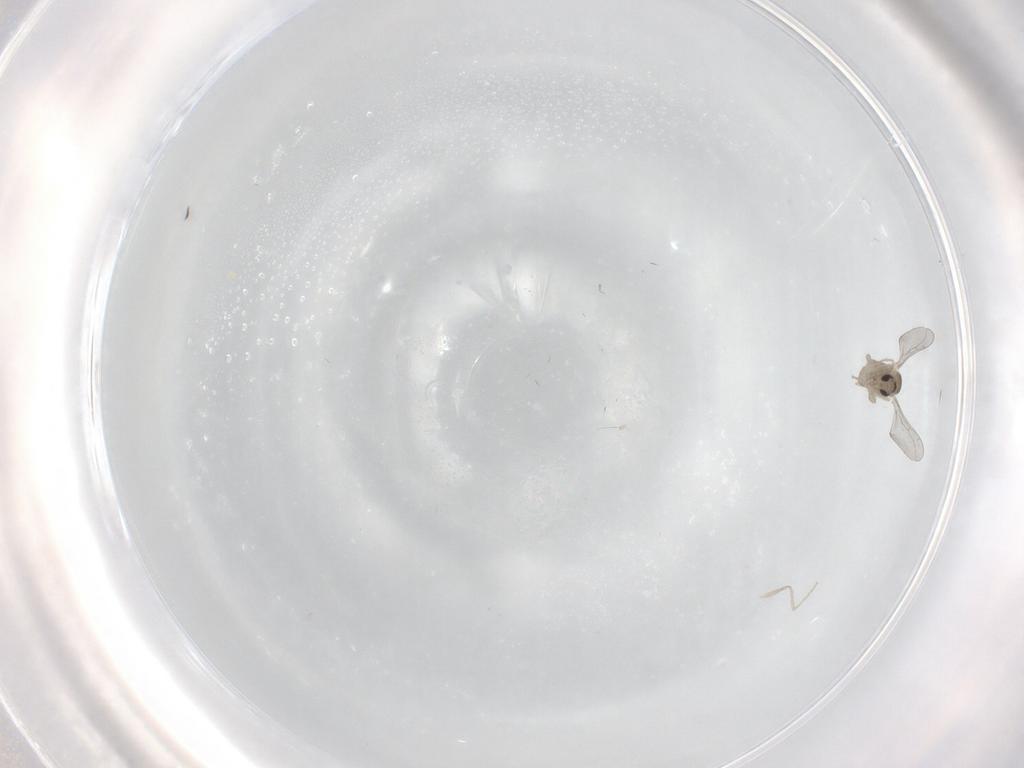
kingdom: Animalia
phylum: Arthropoda
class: Insecta
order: Diptera
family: Cecidomyiidae
